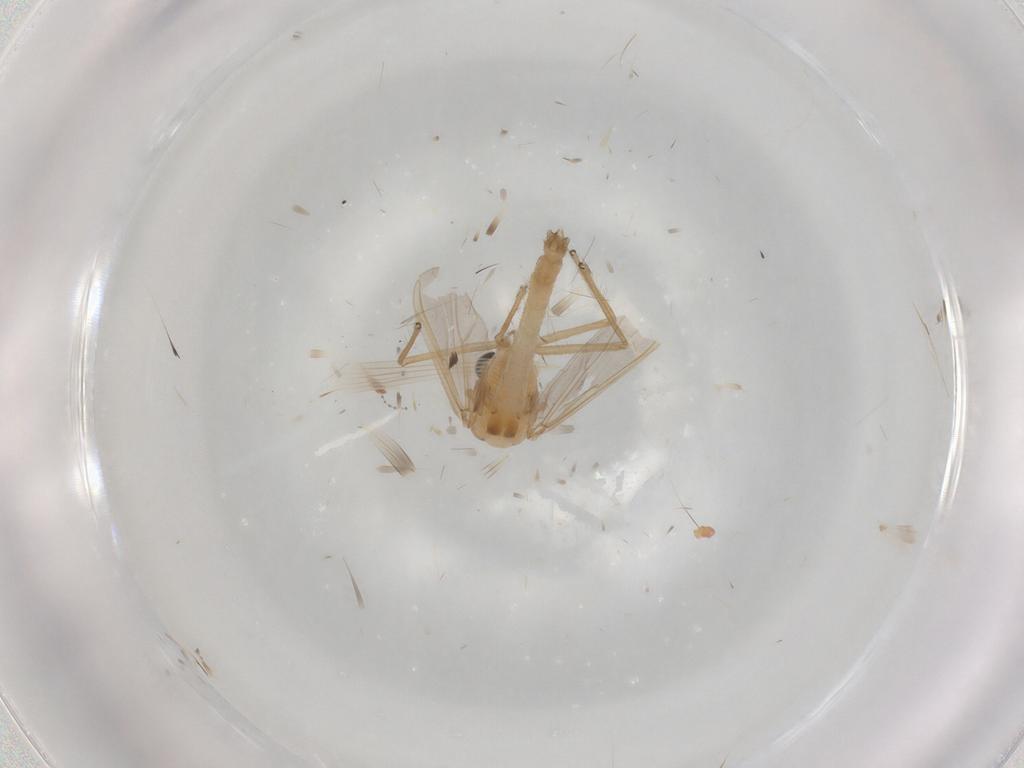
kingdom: Animalia
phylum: Arthropoda
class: Insecta
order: Diptera
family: Chironomidae
